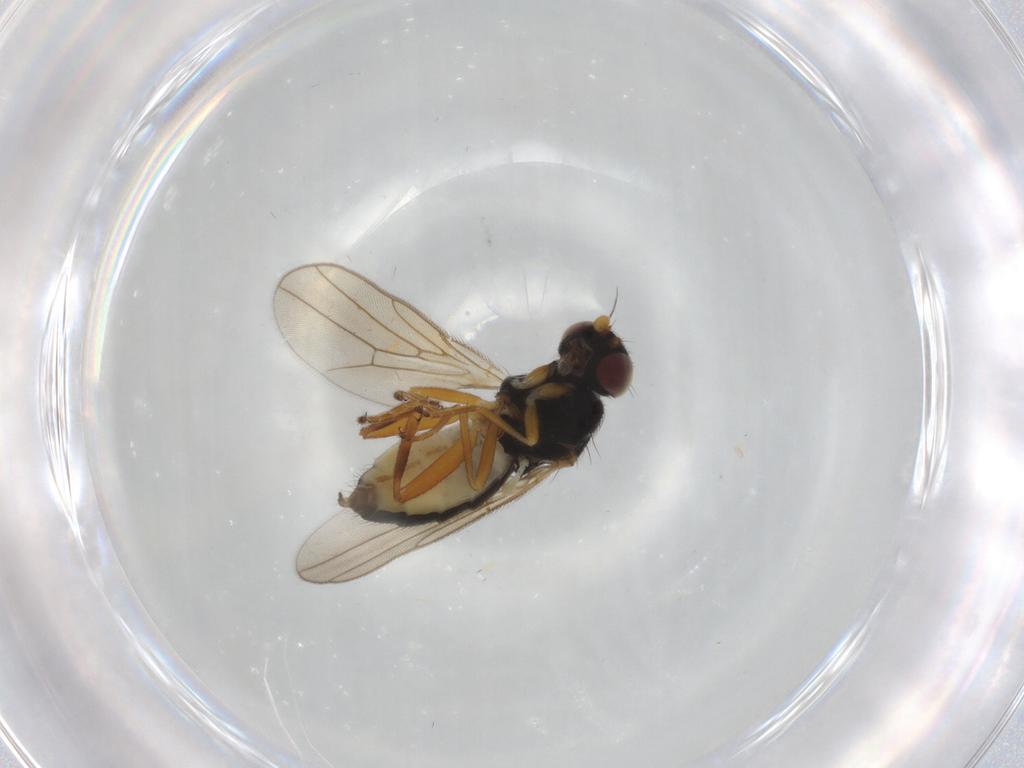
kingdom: Animalia
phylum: Arthropoda
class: Insecta
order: Diptera
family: Chloropidae
